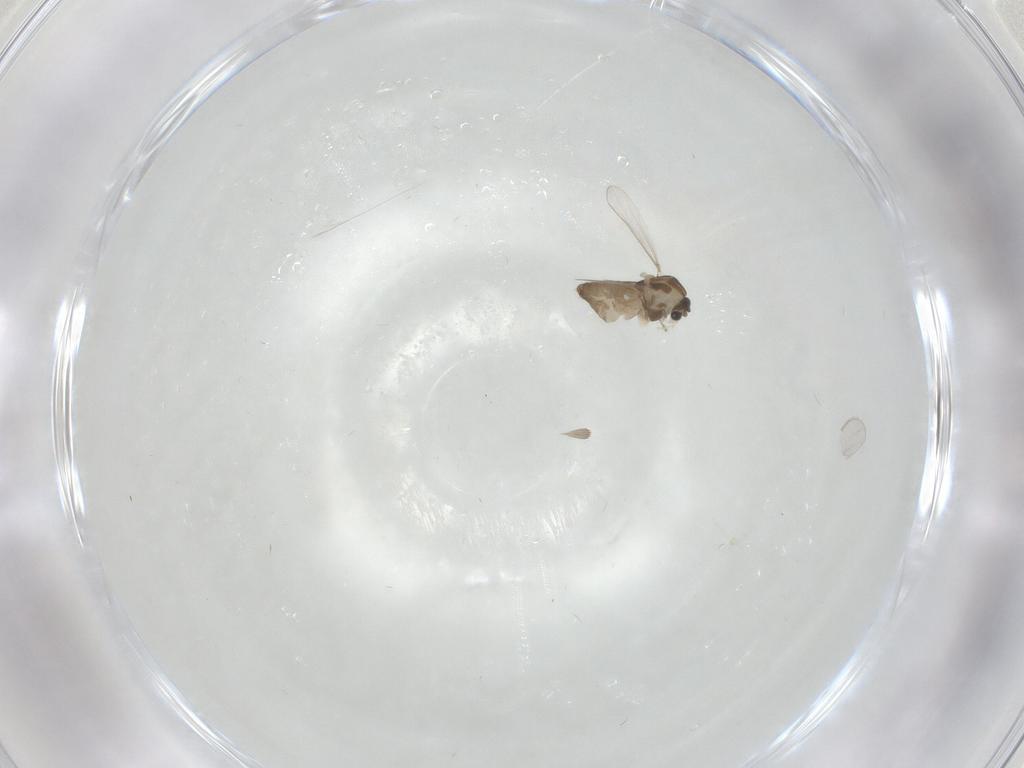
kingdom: Animalia
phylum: Arthropoda
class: Insecta
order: Diptera
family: Chironomidae
